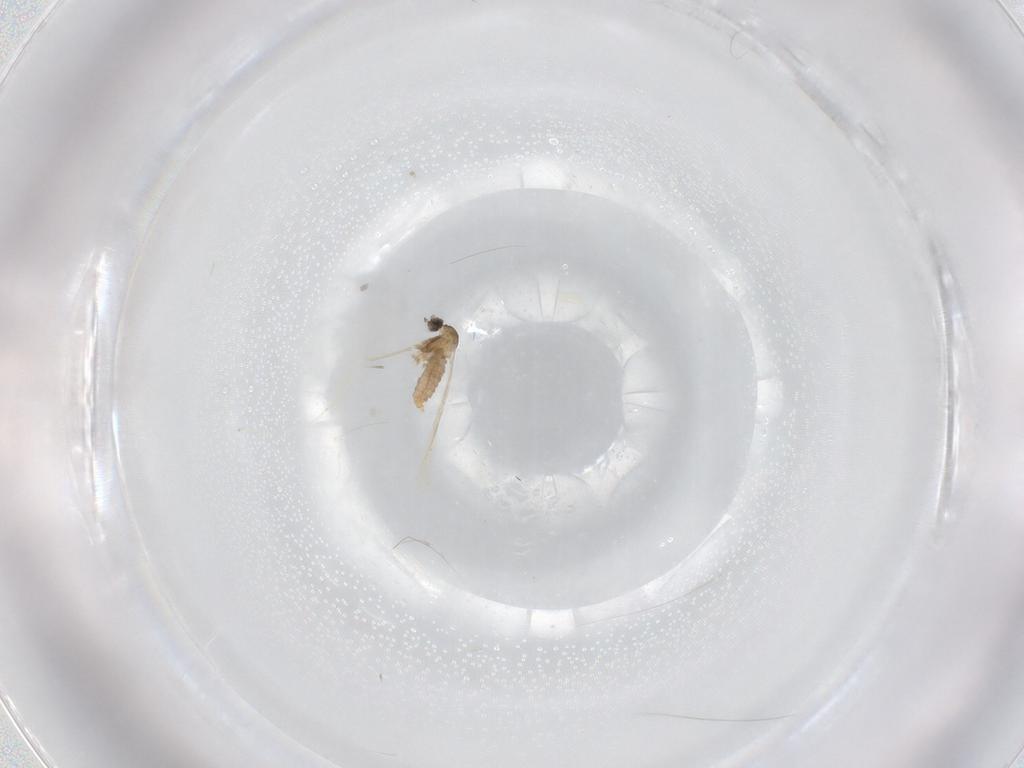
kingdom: Animalia
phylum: Arthropoda
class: Insecta
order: Diptera
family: Cecidomyiidae
